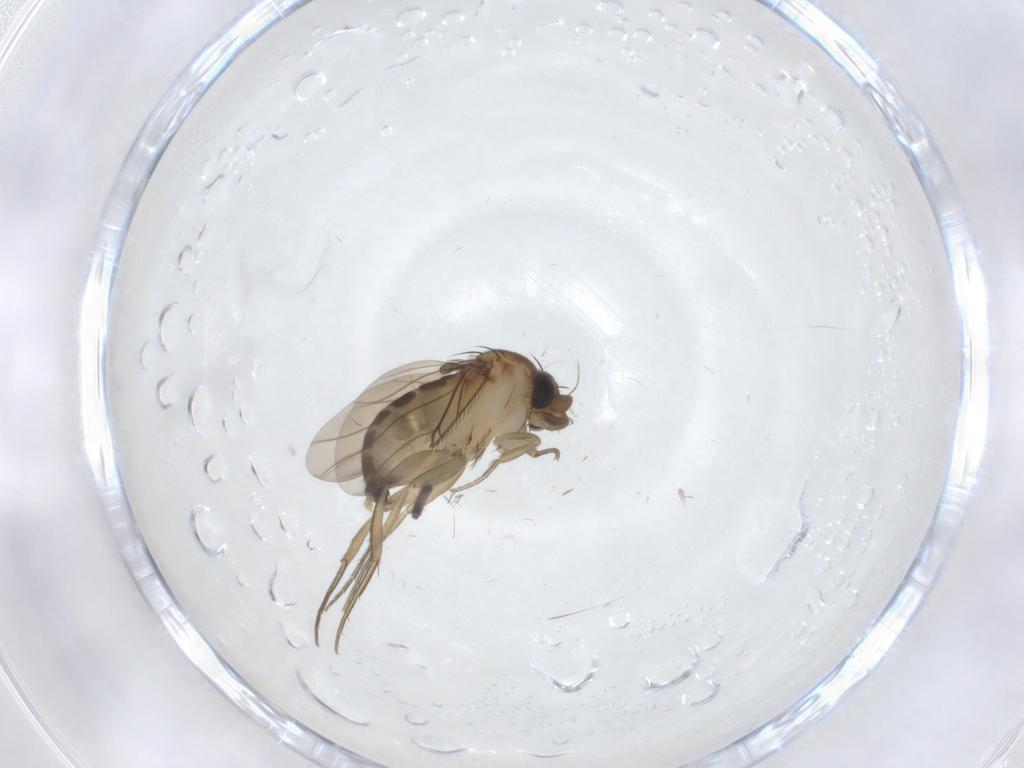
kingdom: Animalia
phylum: Arthropoda
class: Insecta
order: Diptera
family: Phoridae
